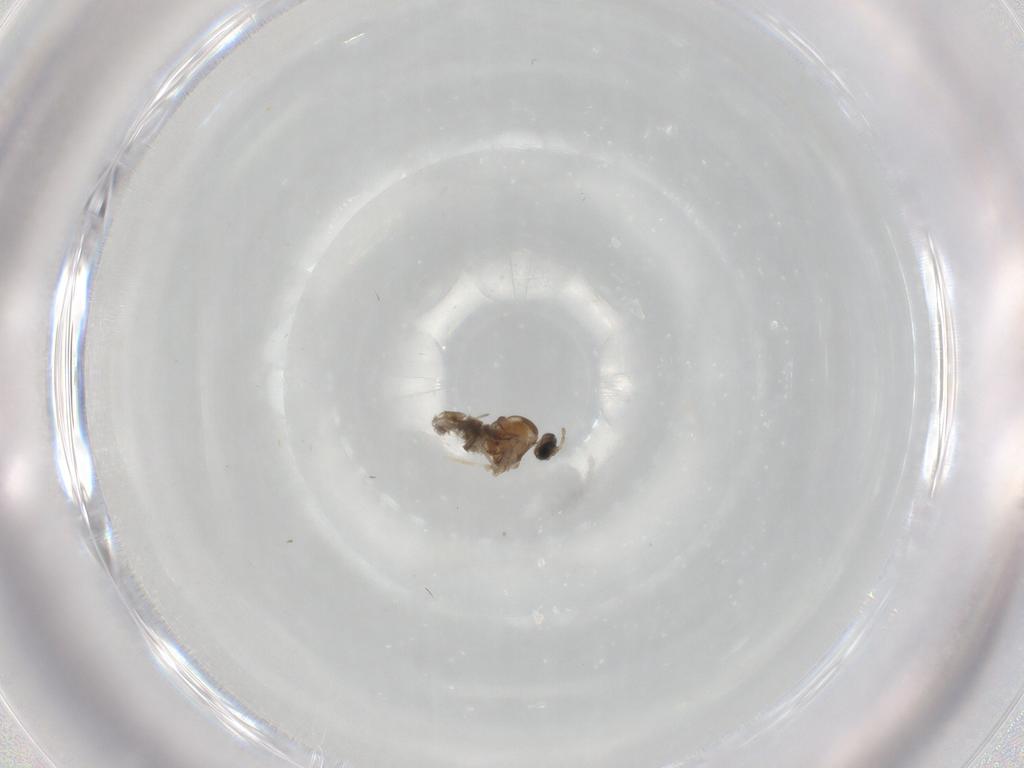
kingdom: Animalia
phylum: Arthropoda
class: Insecta
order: Diptera
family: Cecidomyiidae
